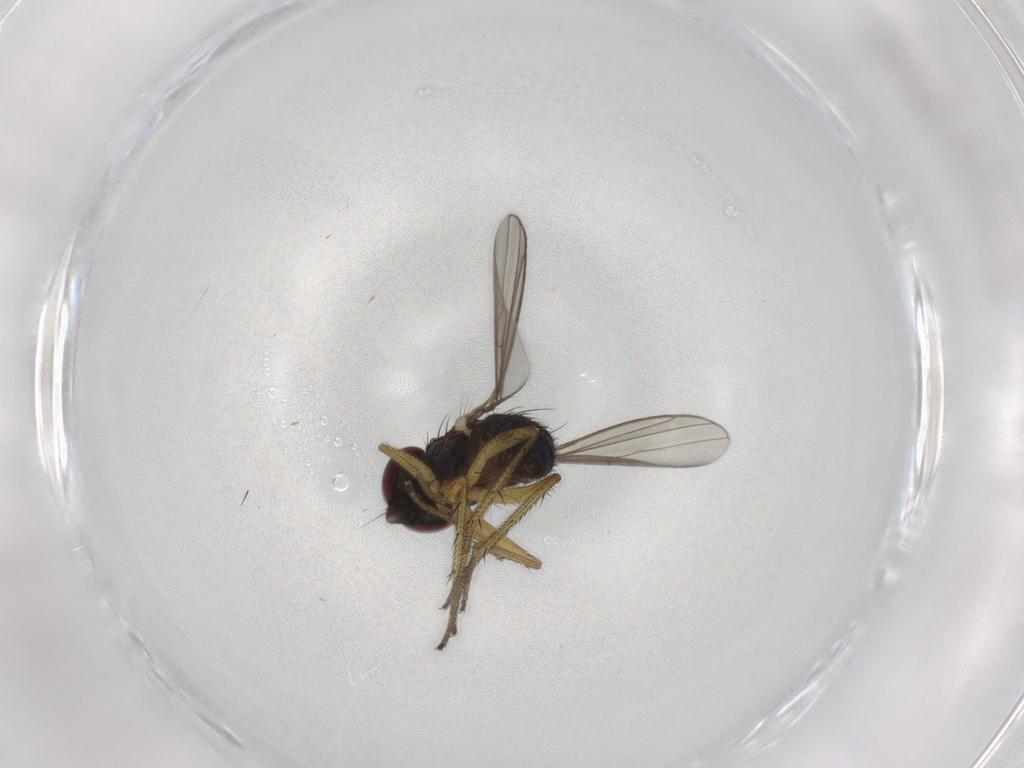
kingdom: Animalia
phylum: Arthropoda
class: Insecta
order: Diptera
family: Dolichopodidae
